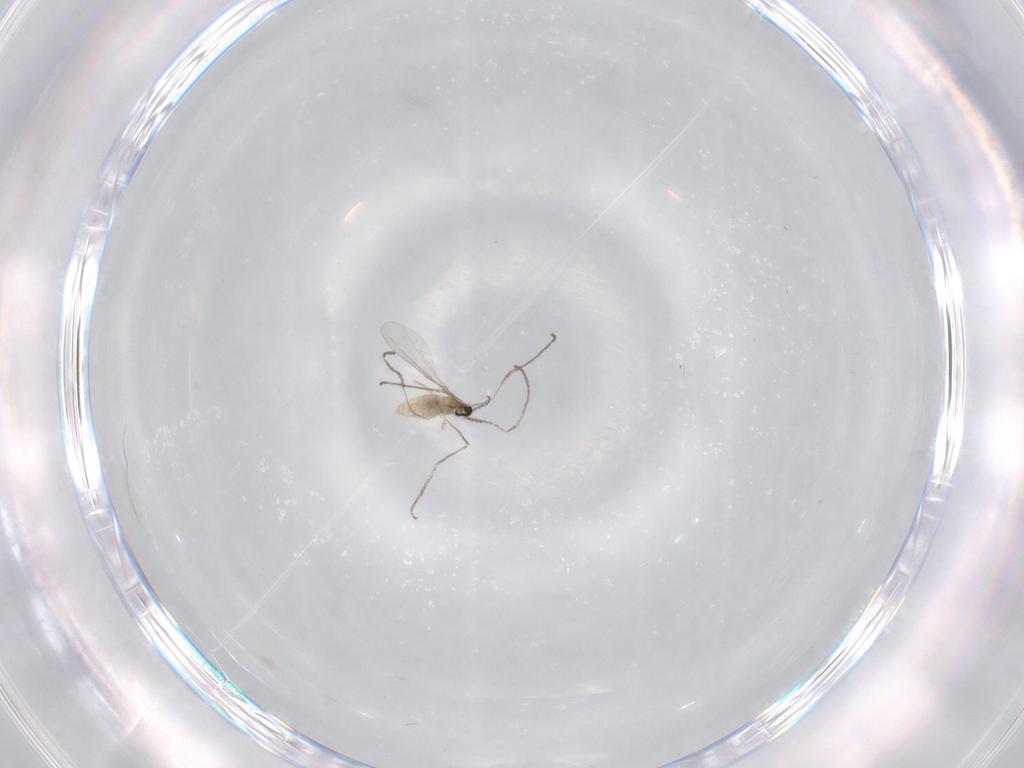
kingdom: Animalia
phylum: Arthropoda
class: Insecta
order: Diptera
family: Cecidomyiidae
